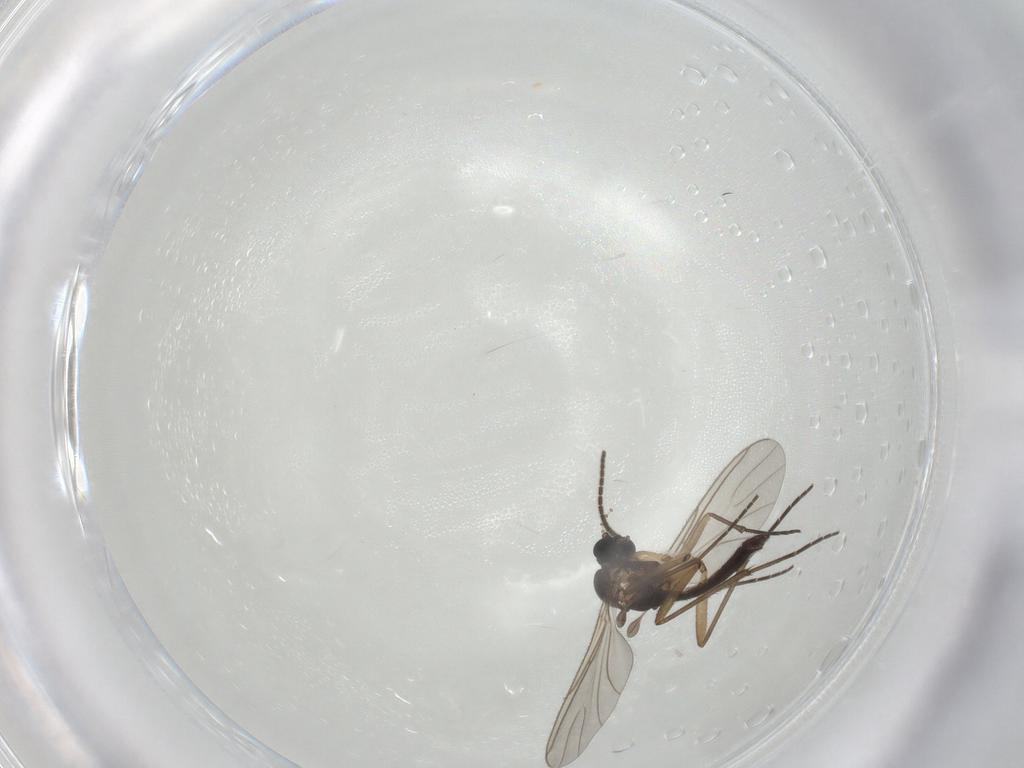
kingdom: Animalia
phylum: Arthropoda
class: Insecta
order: Diptera
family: Sciaridae
